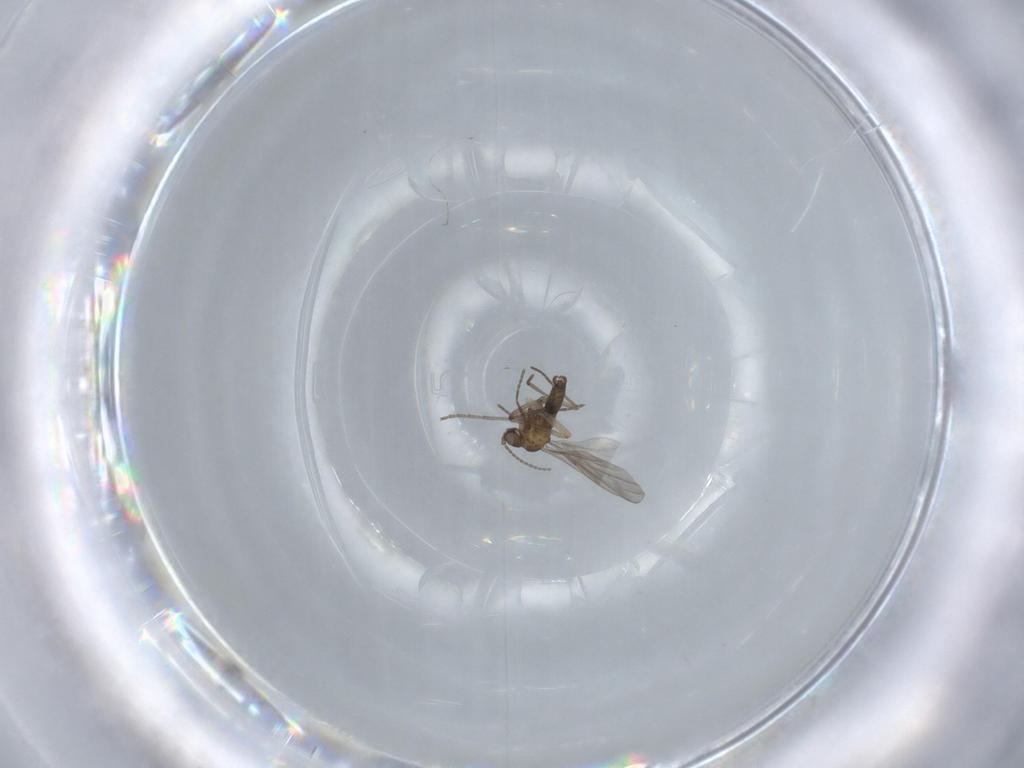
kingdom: Animalia
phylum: Arthropoda
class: Insecta
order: Diptera
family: Chironomidae
